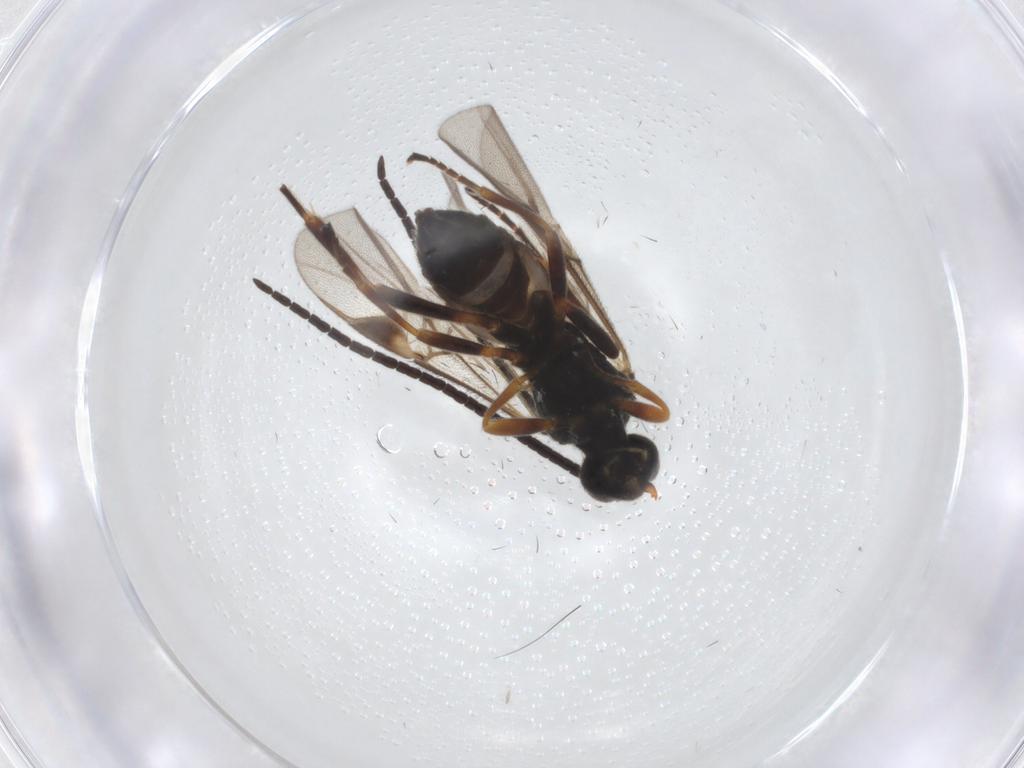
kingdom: Animalia
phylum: Arthropoda
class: Insecta
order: Hymenoptera
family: Braconidae
